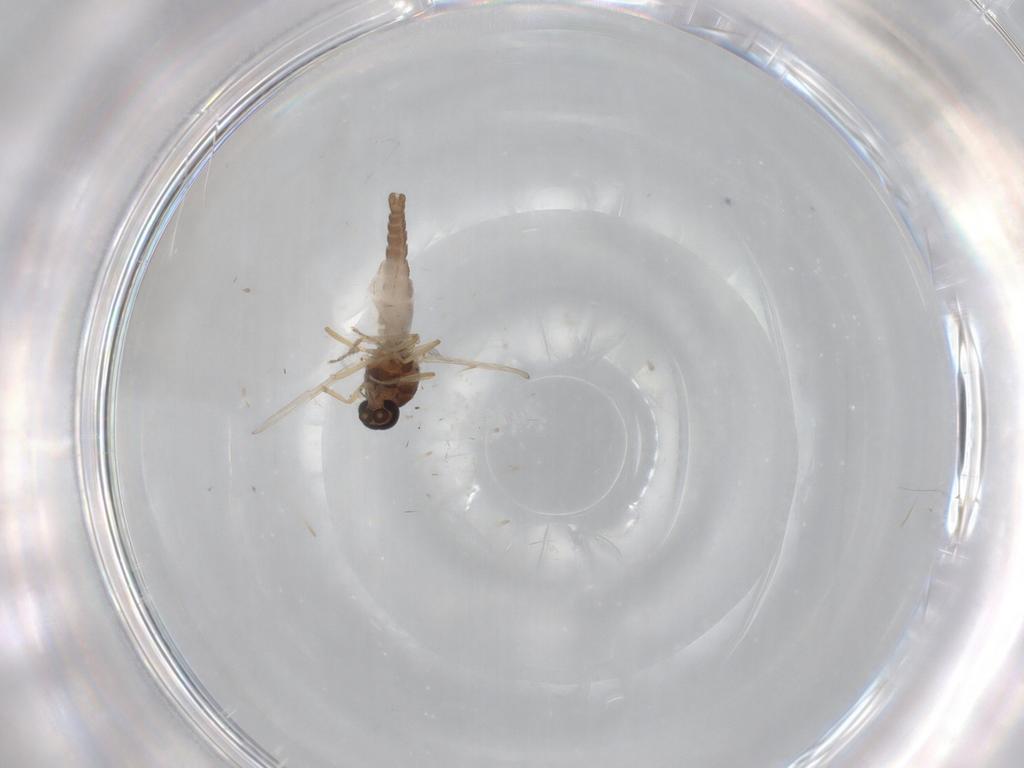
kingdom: Animalia
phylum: Arthropoda
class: Insecta
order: Diptera
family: Ceratopogonidae
